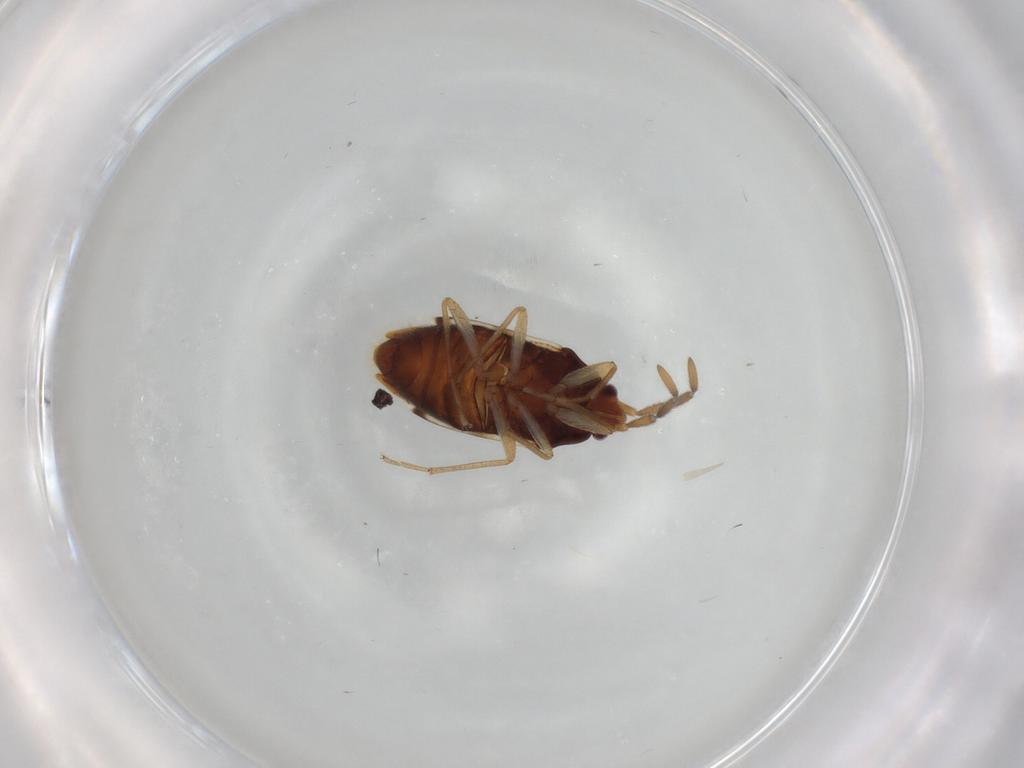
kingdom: Animalia
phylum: Arthropoda
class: Insecta
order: Hemiptera
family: Rhyparochromidae
